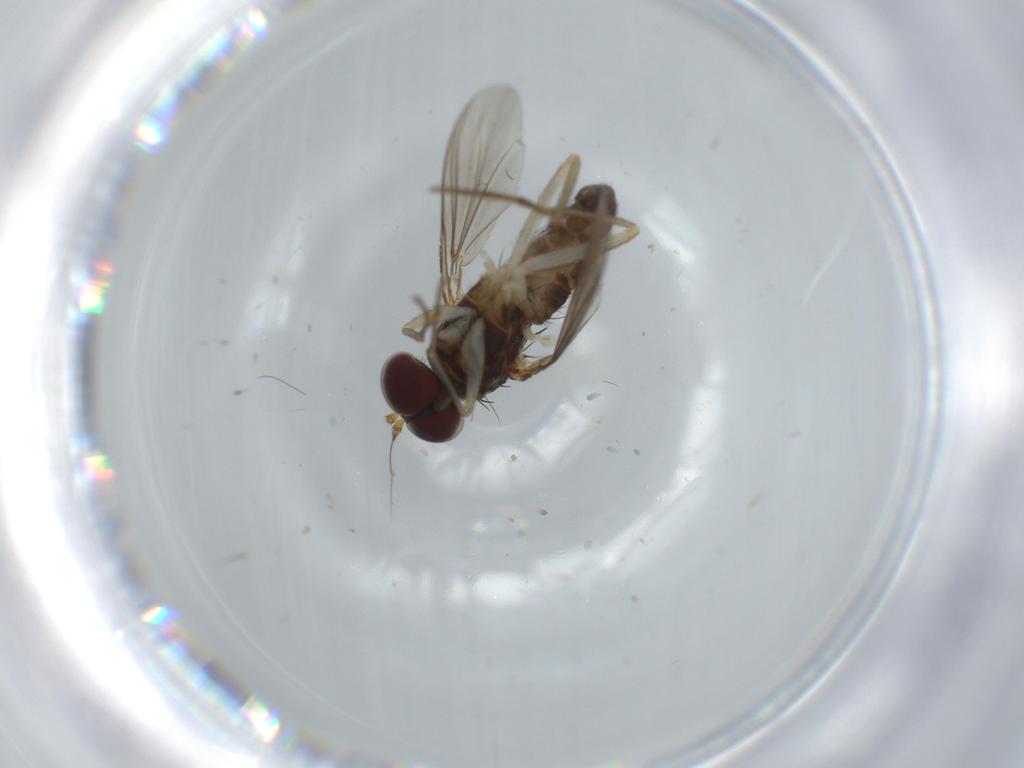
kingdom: Animalia
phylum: Arthropoda
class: Insecta
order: Diptera
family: Dolichopodidae
